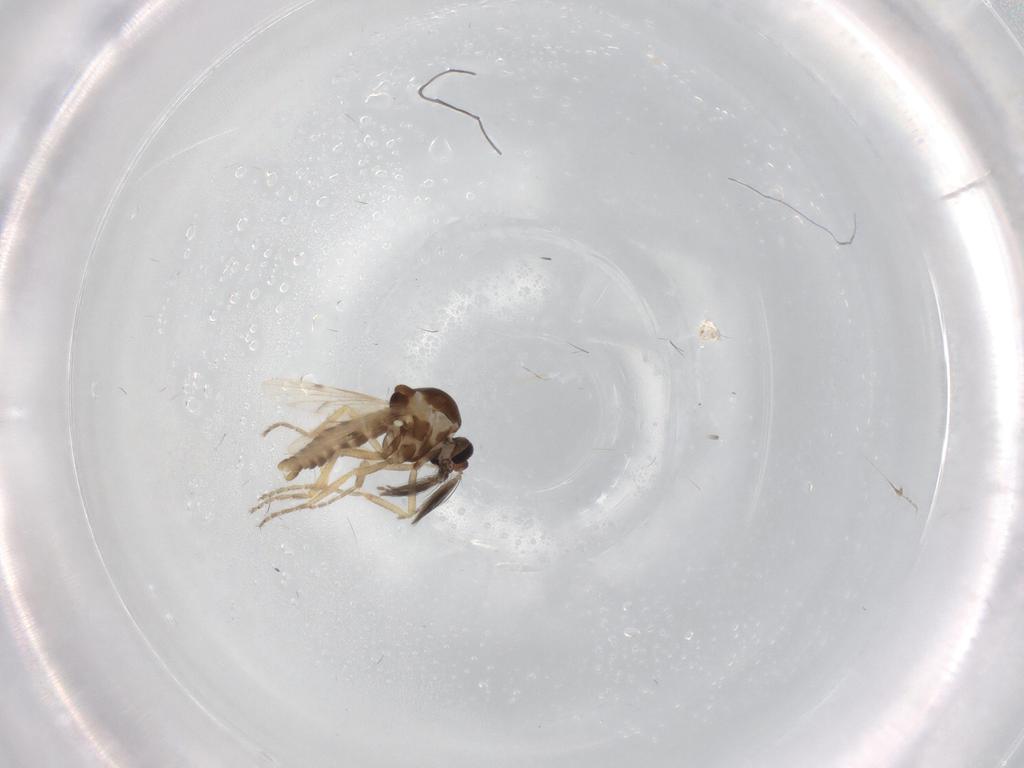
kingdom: Animalia
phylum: Arthropoda
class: Insecta
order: Diptera
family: Ceratopogonidae
